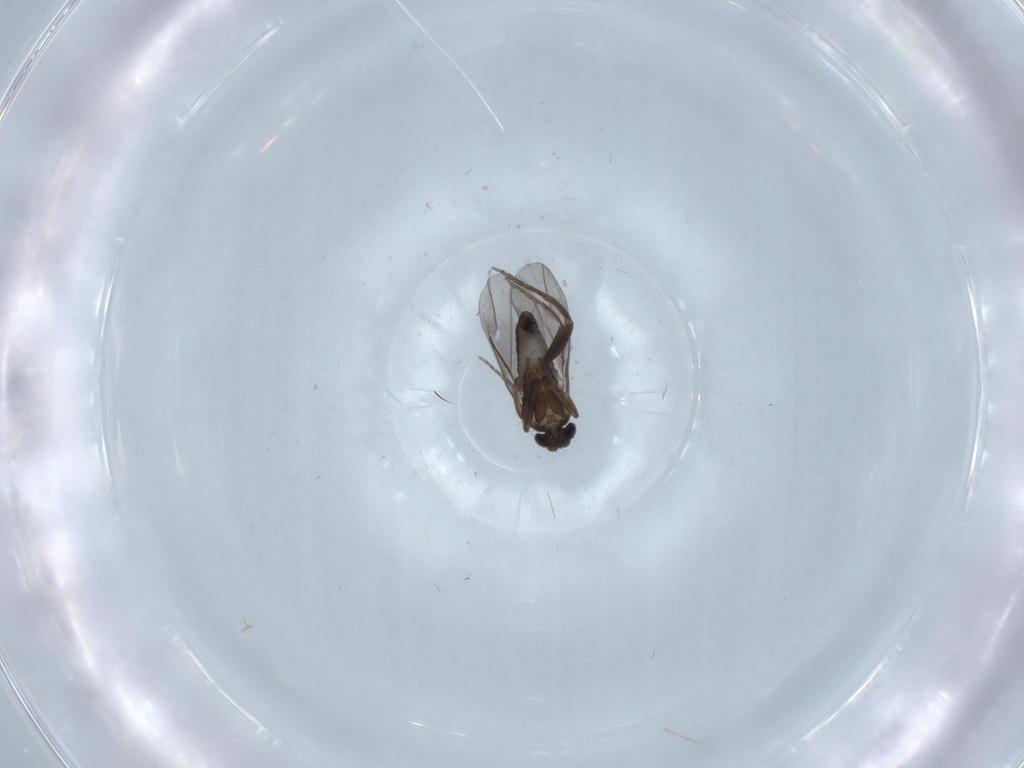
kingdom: Animalia
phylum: Arthropoda
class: Insecta
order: Diptera
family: Phoridae
